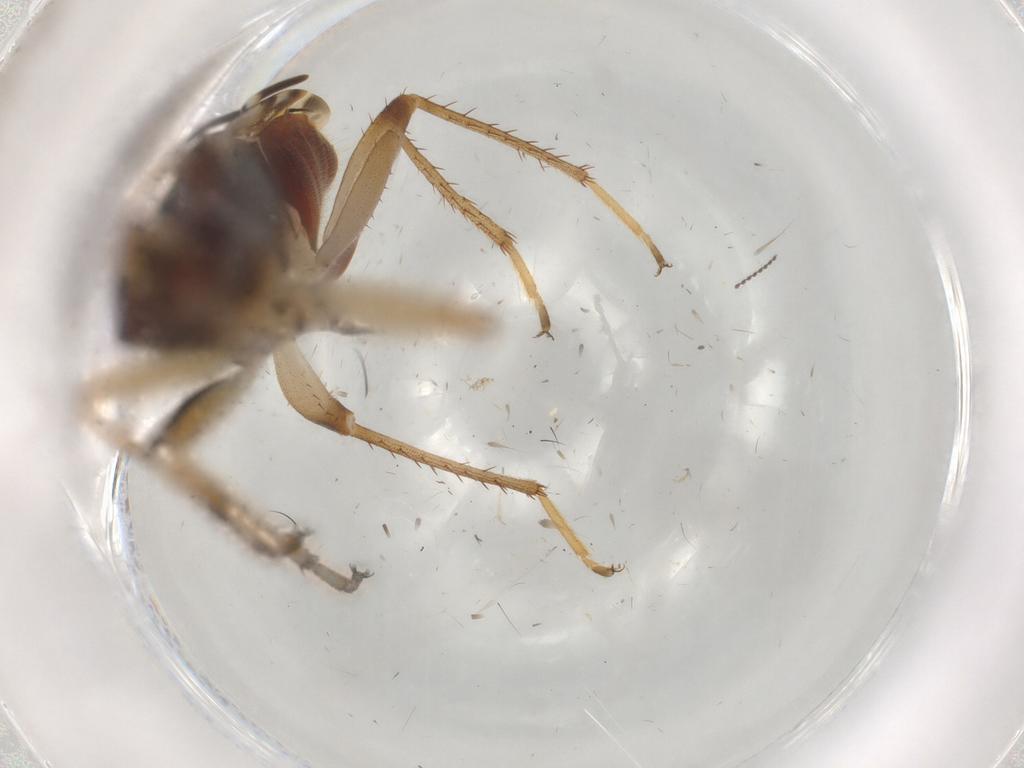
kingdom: Animalia
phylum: Arthropoda
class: Insecta
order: Hemiptera
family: Rhyparochromidae
